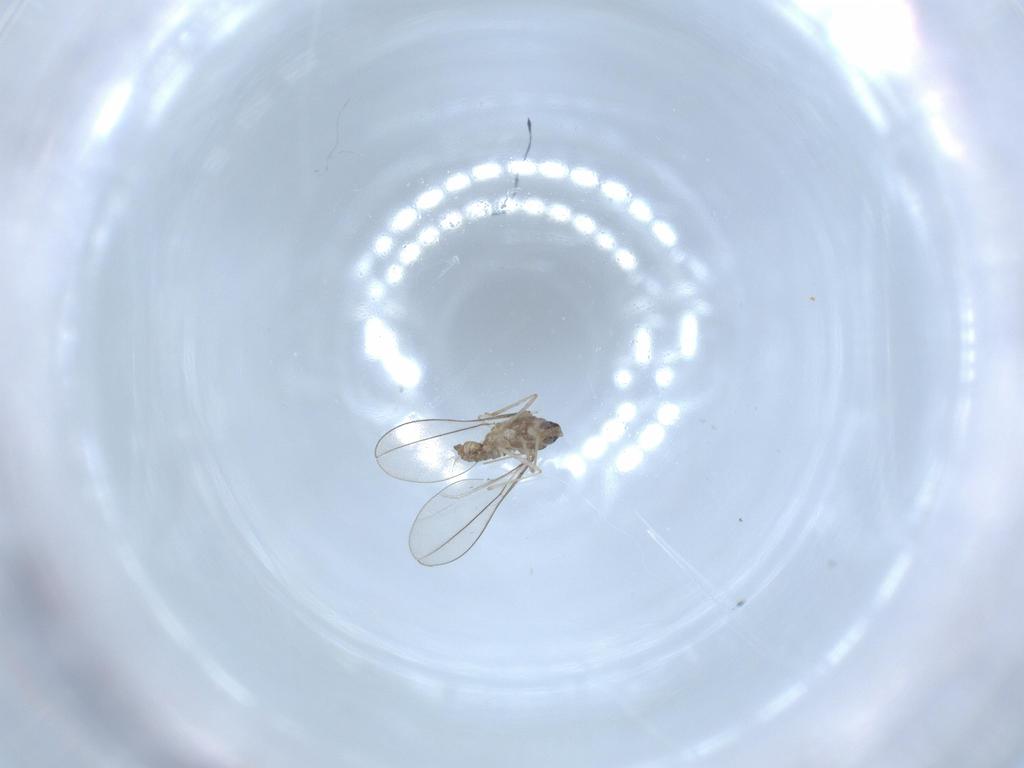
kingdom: Animalia
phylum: Arthropoda
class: Insecta
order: Diptera
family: Cecidomyiidae
